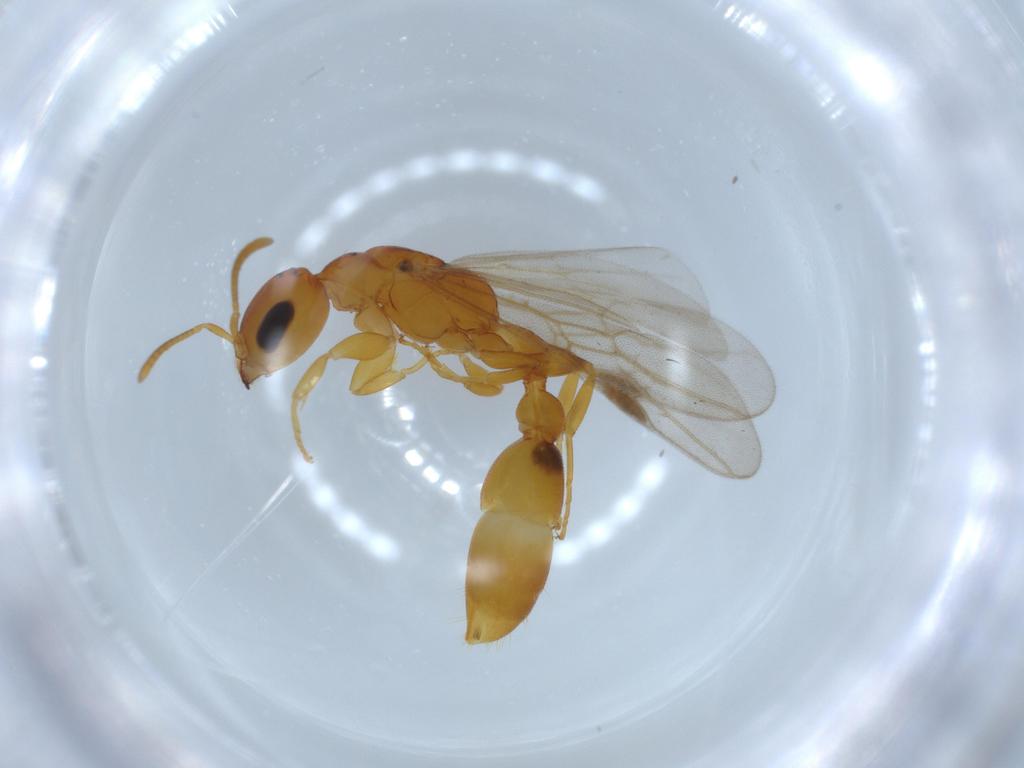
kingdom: Animalia
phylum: Arthropoda
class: Insecta
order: Hymenoptera
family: Formicidae
